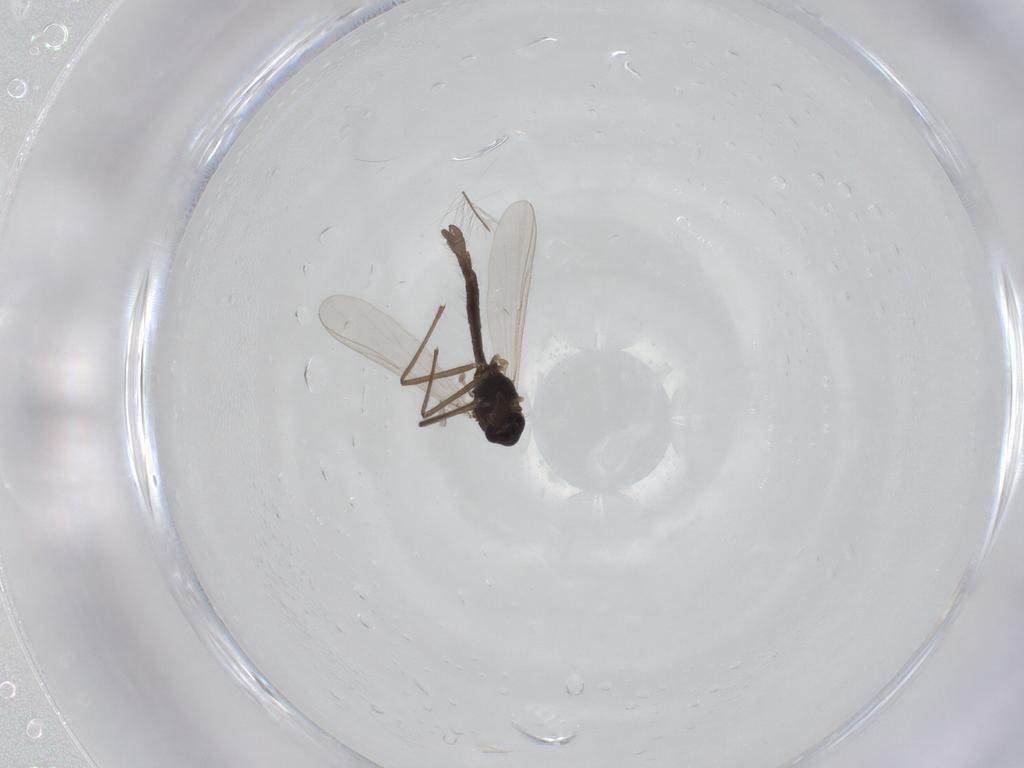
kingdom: Animalia
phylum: Arthropoda
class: Insecta
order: Diptera
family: Chironomidae
